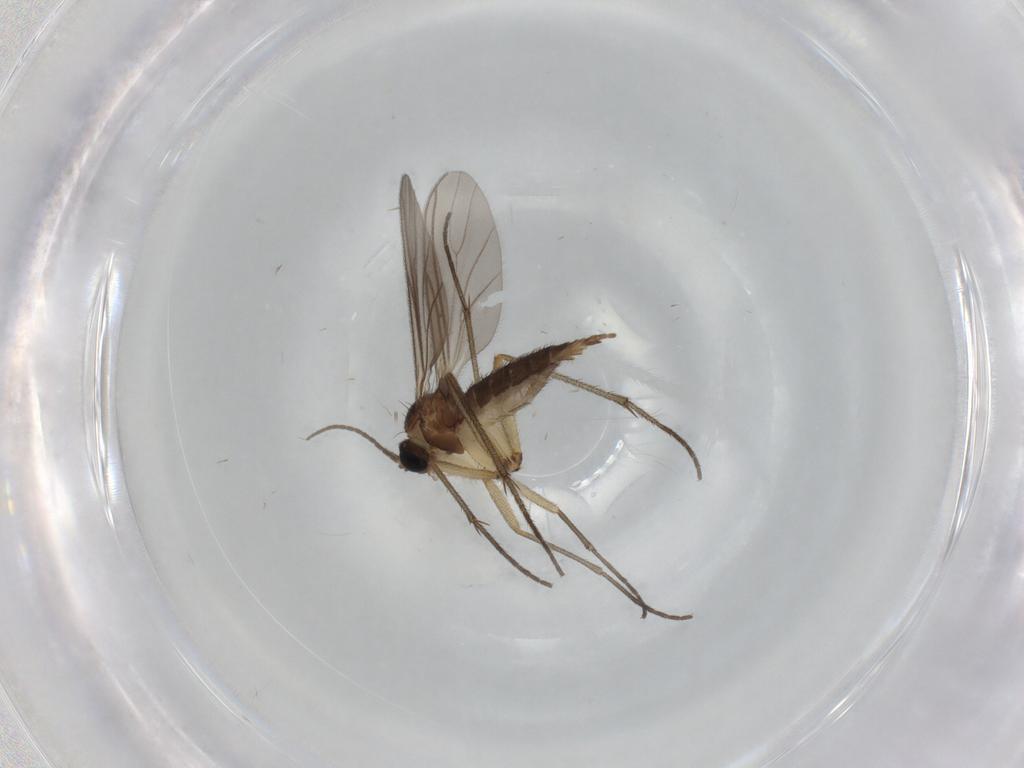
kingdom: Animalia
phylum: Arthropoda
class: Insecta
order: Diptera
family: Sciaridae
